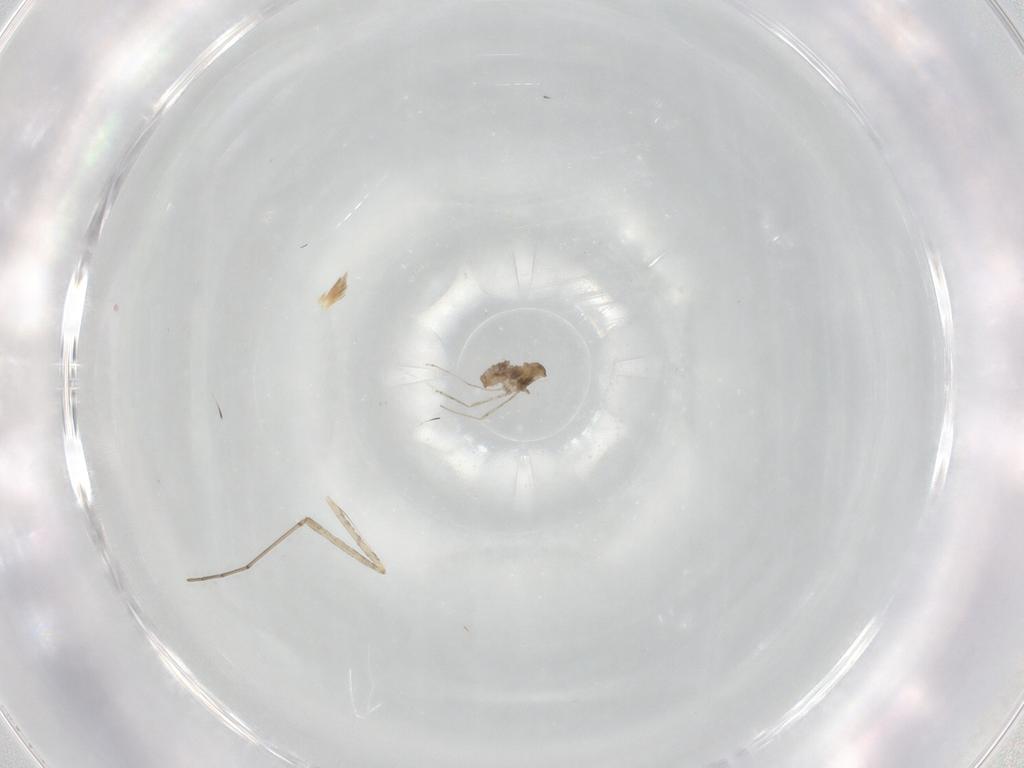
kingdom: Animalia
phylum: Arthropoda
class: Insecta
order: Diptera
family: Cecidomyiidae
